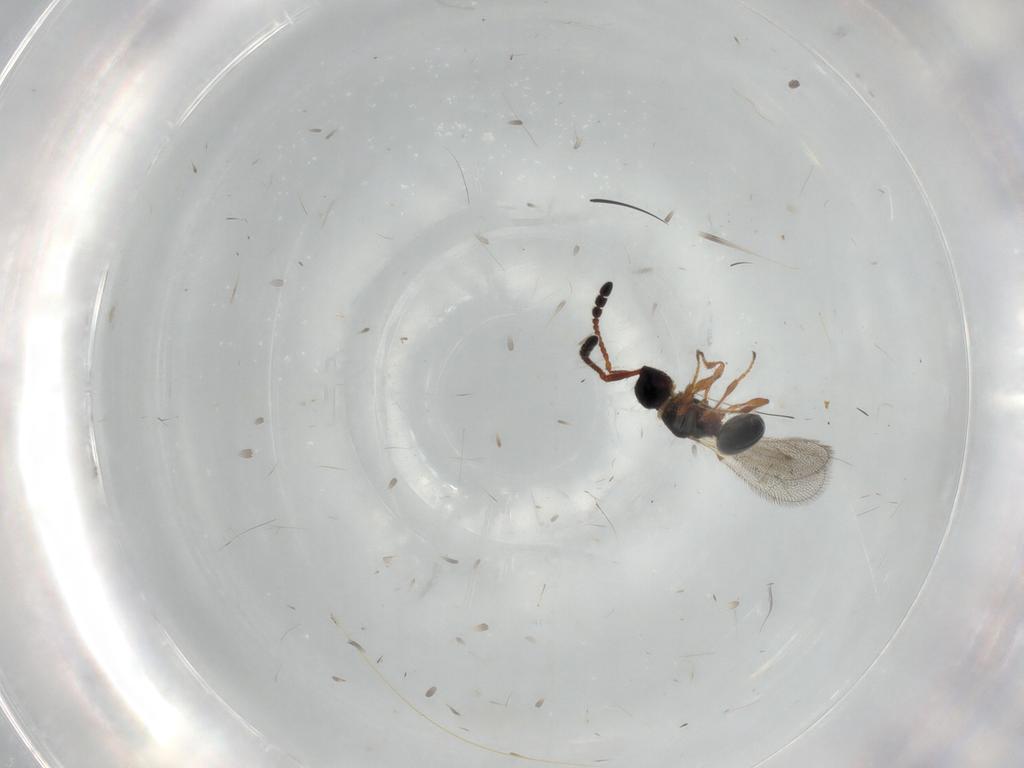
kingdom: Animalia
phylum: Arthropoda
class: Insecta
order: Hymenoptera
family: Diapriidae
